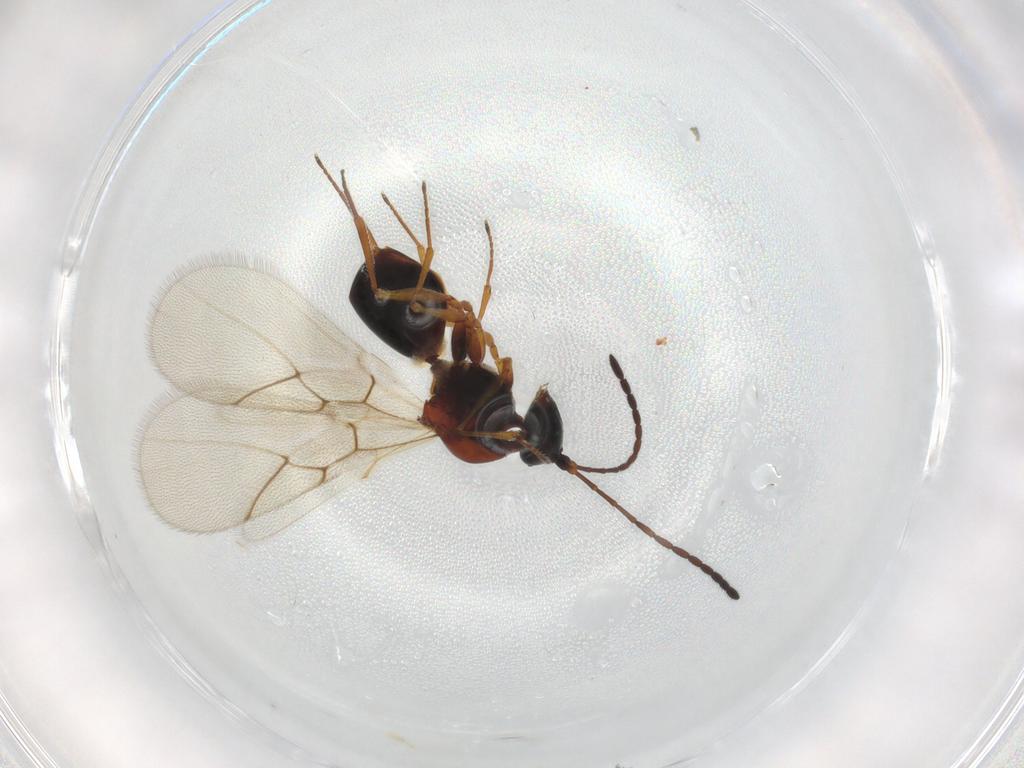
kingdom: Animalia
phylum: Arthropoda
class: Insecta
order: Hymenoptera
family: Figitidae
